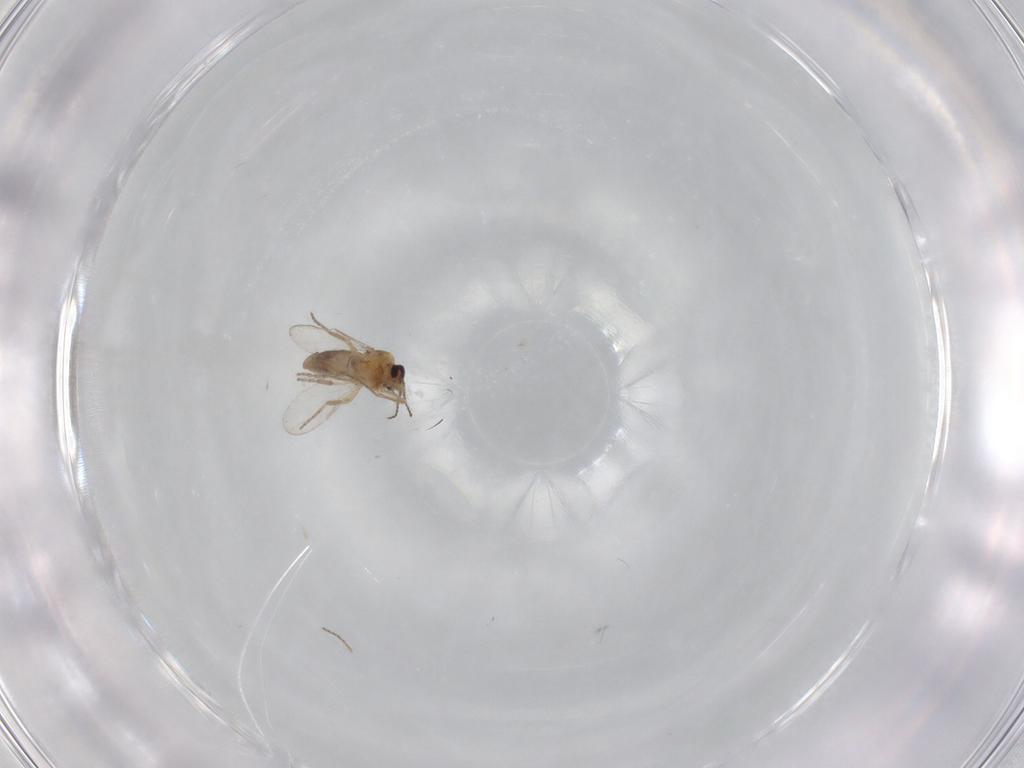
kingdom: Animalia
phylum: Arthropoda
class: Insecta
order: Diptera
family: Ceratopogonidae
